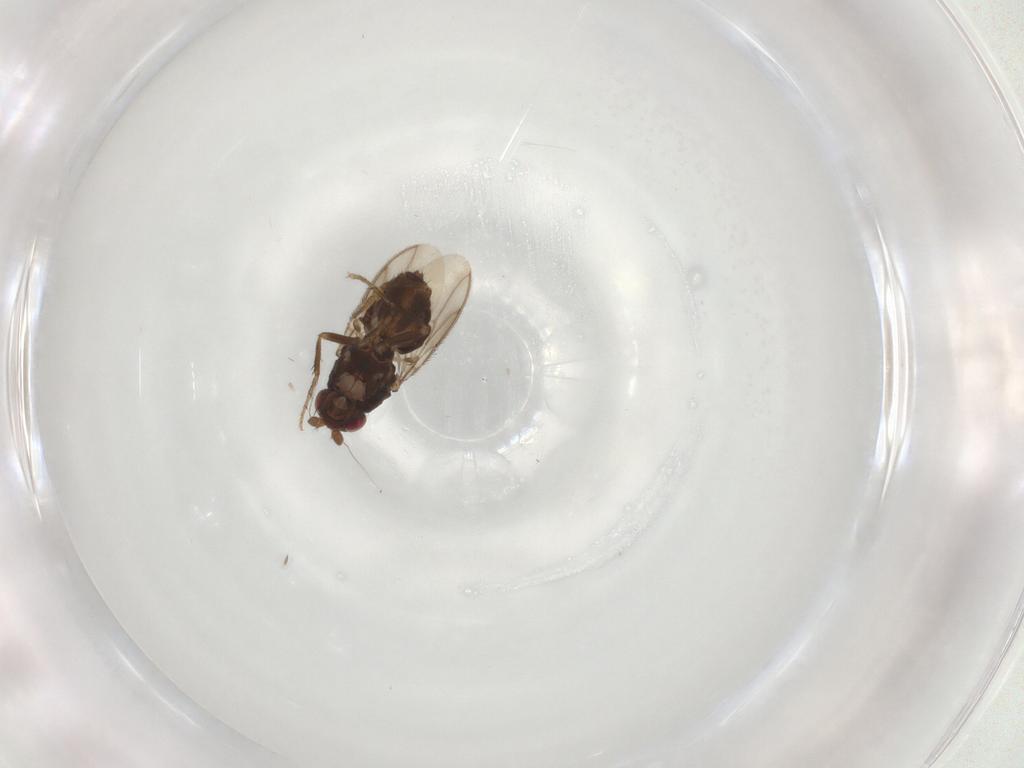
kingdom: Animalia
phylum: Arthropoda
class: Insecta
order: Diptera
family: Sphaeroceridae
